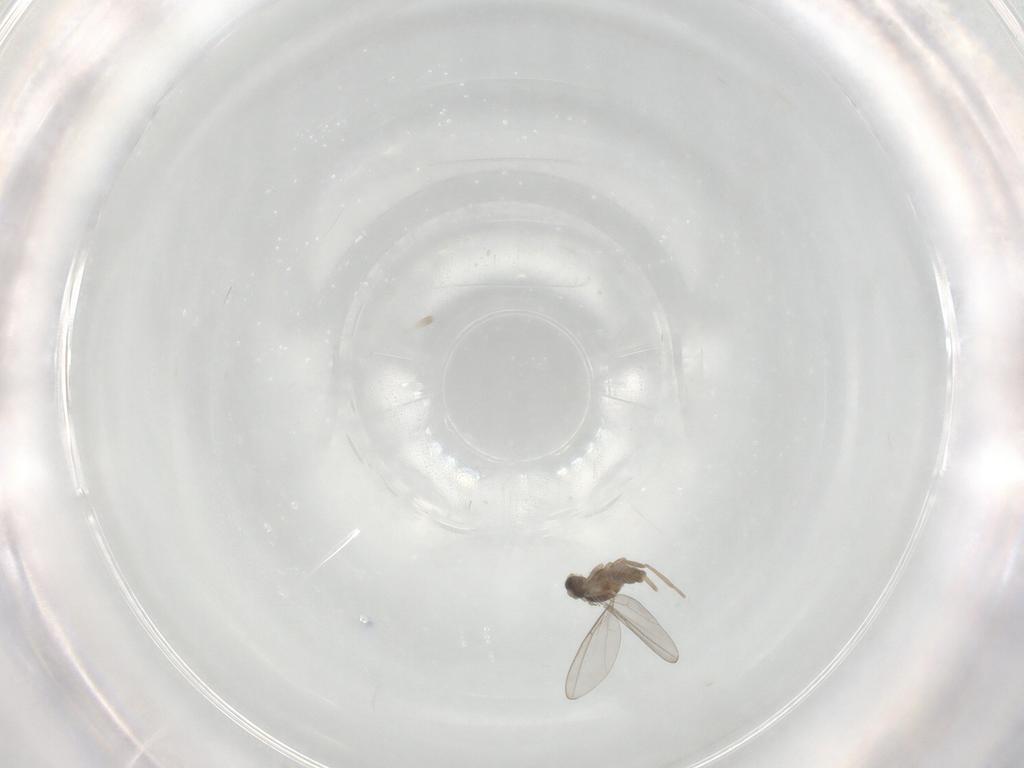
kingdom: Animalia
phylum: Arthropoda
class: Insecta
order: Diptera
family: Cecidomyiidae
